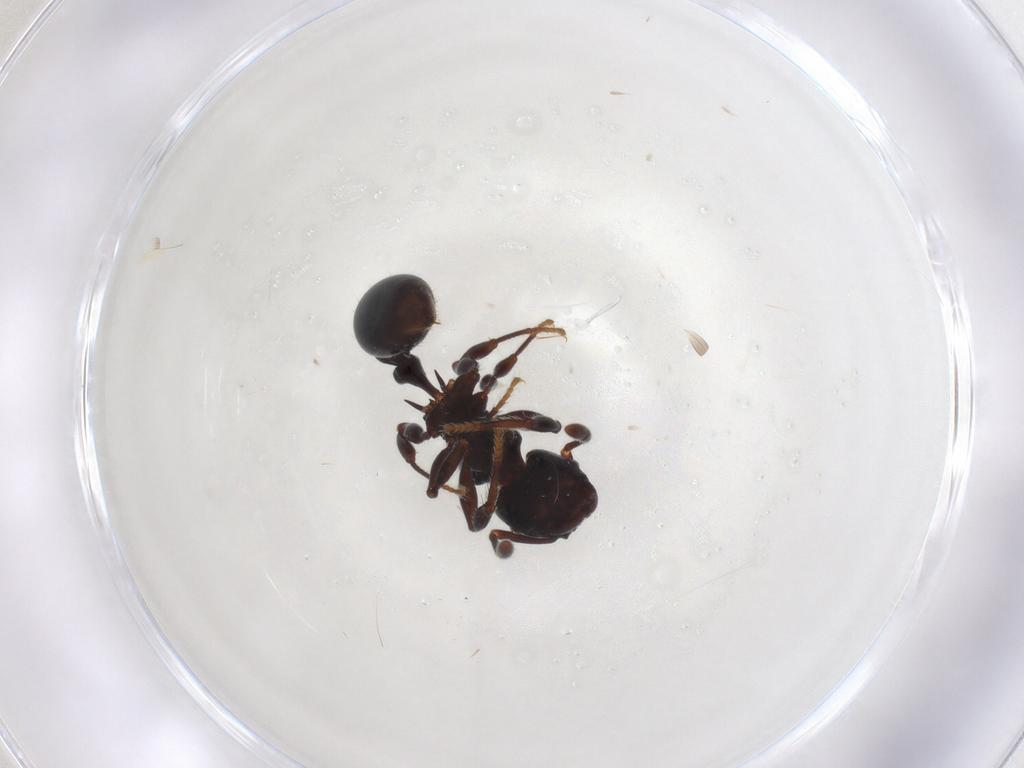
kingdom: Animalia
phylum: Arthropoda
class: Insecta
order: Hymenoptera
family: Formicidae
